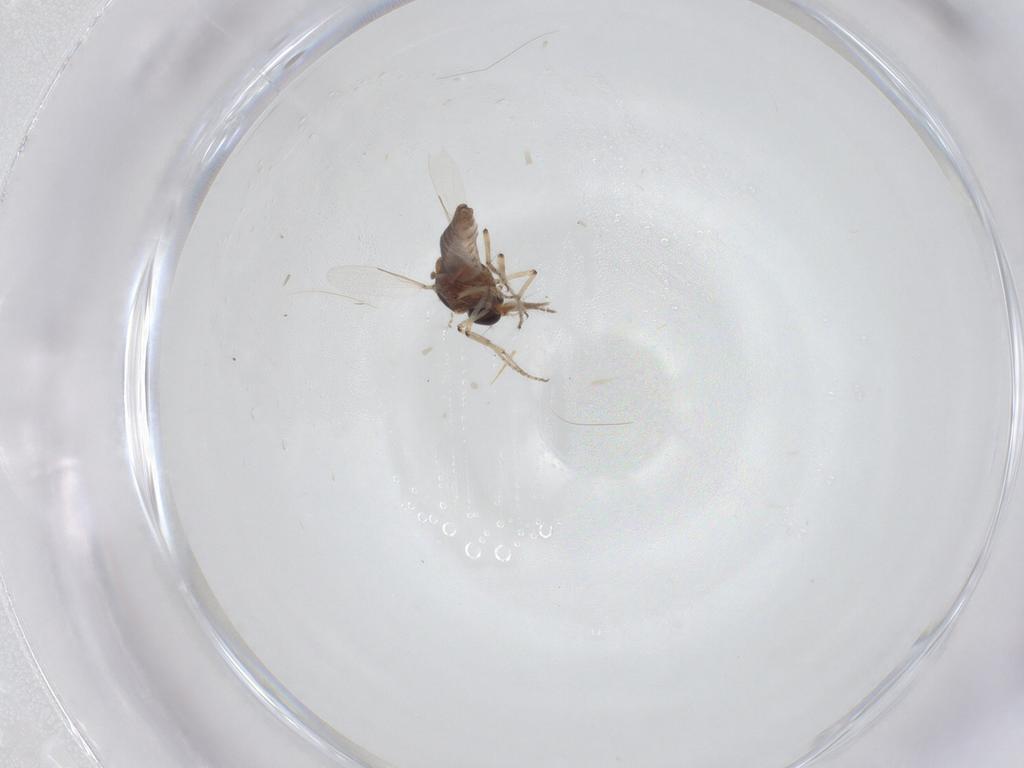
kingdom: Animalia
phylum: Arthropoda
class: Insecta
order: Diptera
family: Ceratopogonidae
